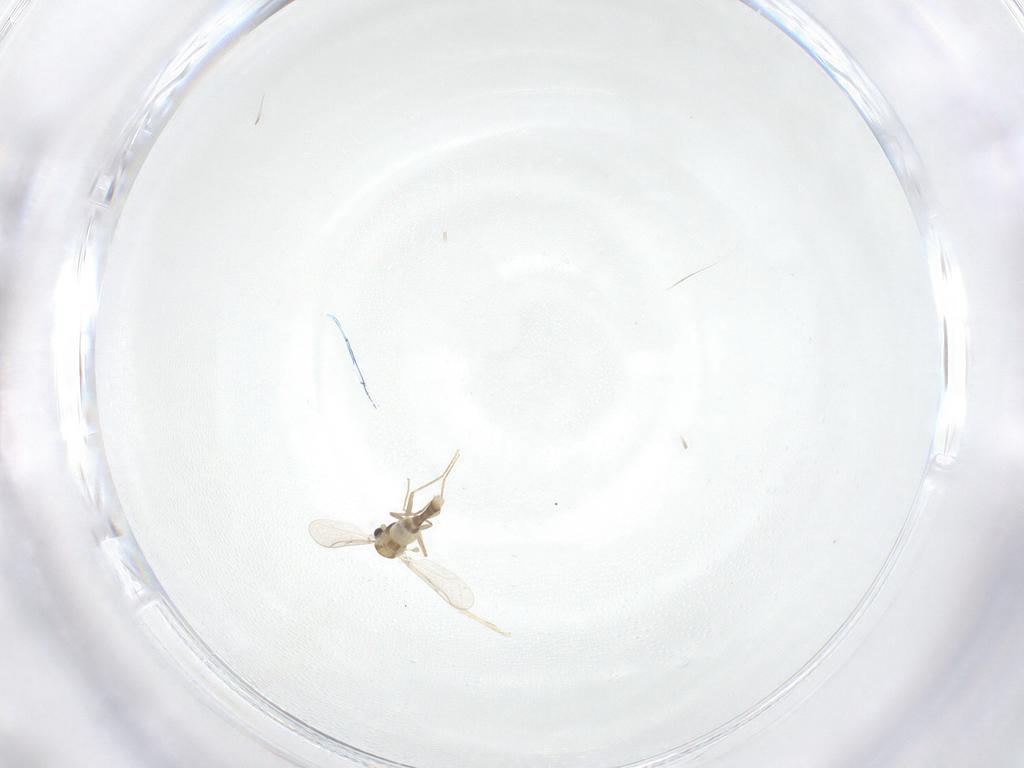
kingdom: Animalia
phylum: Arthropoda
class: Insecta
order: Diptera
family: Chironomidae
